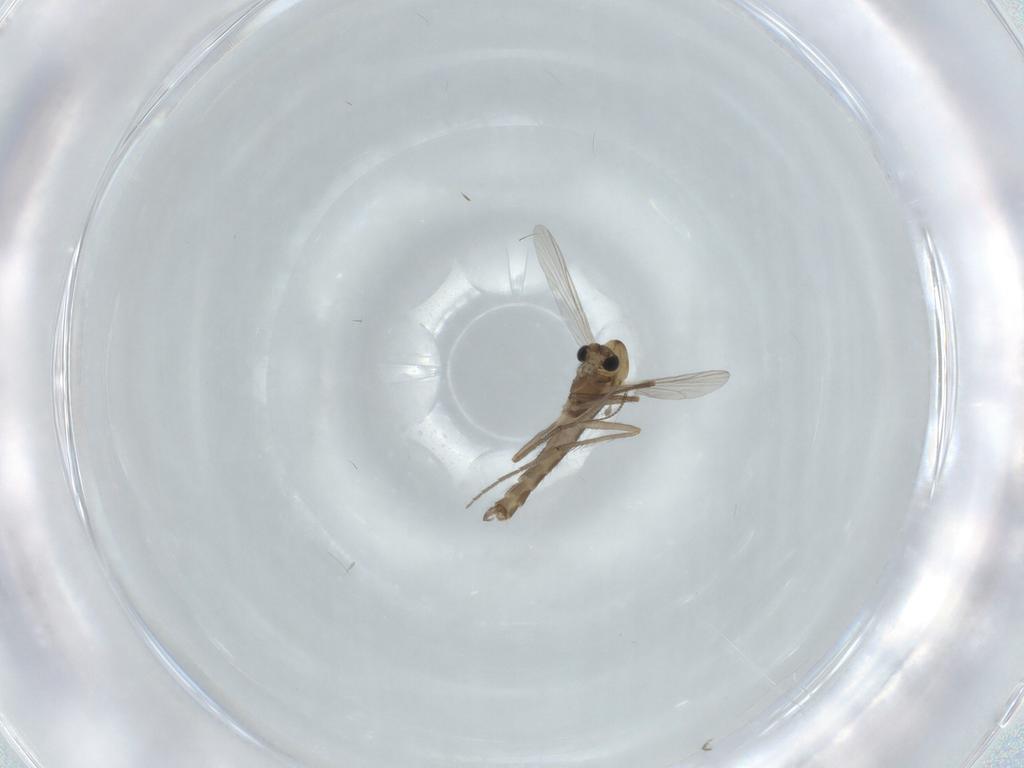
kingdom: Animalia
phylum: Arthropoda
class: Insecta
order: Diptera
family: Chironomidae
